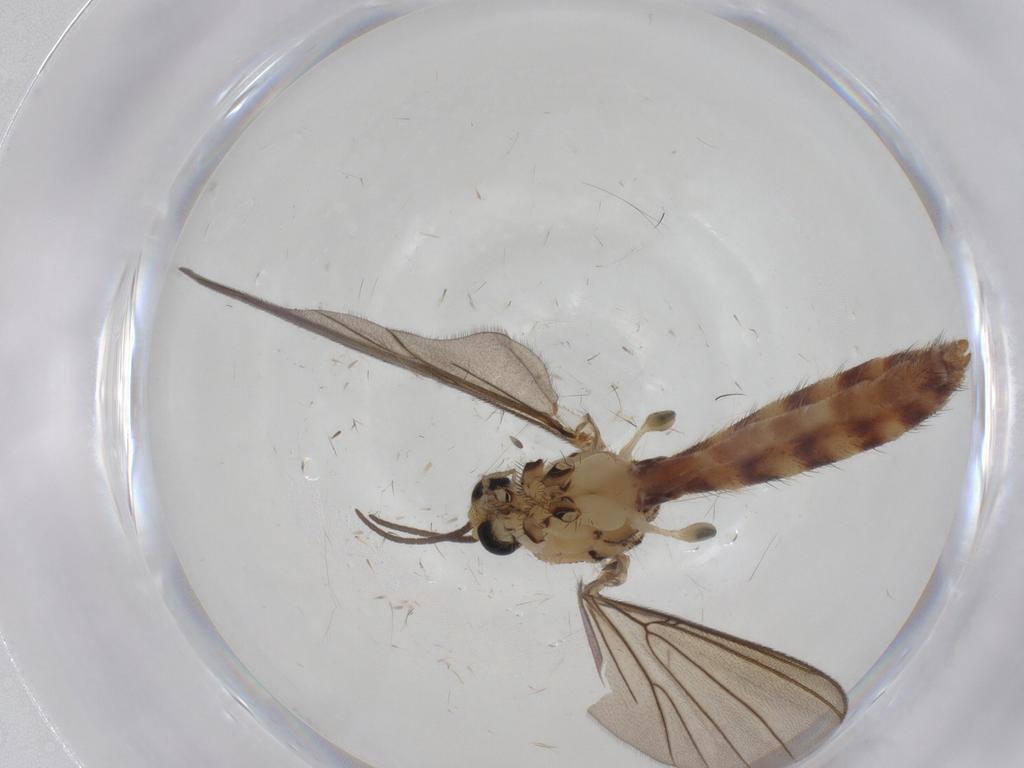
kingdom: Animalia
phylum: Arthropoda
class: Insecta
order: Diptera
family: Mycetophilidae
